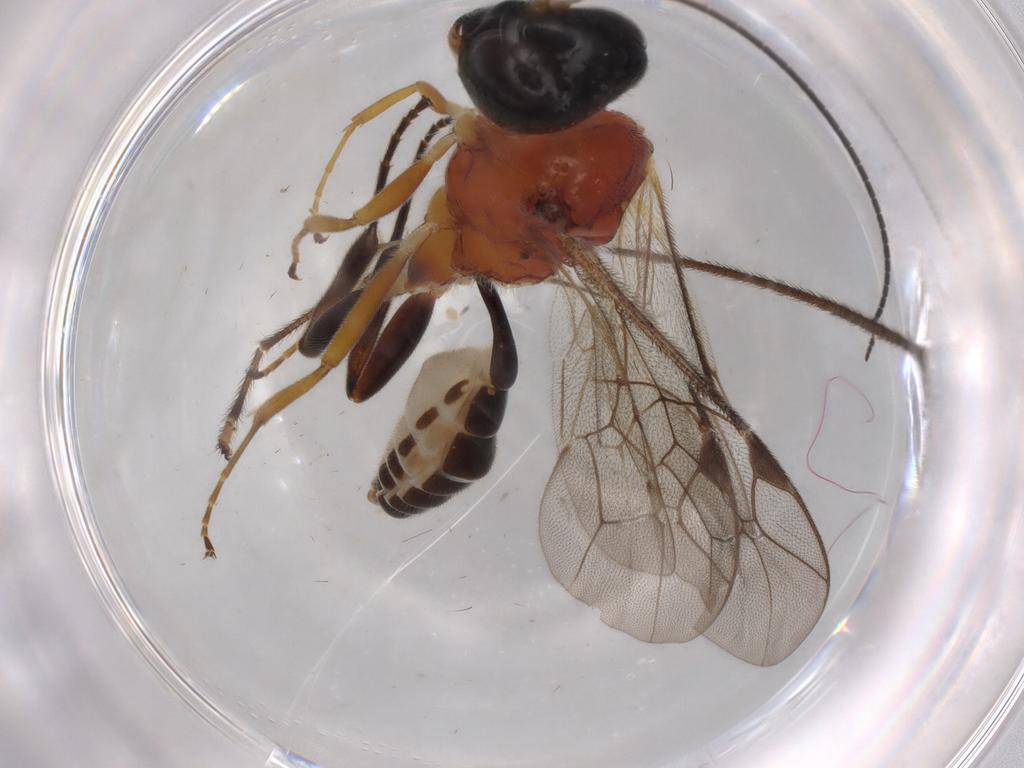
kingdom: Animalia
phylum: Arthropoda
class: Insecta
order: Hymenoptera
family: Ichneumonidae
